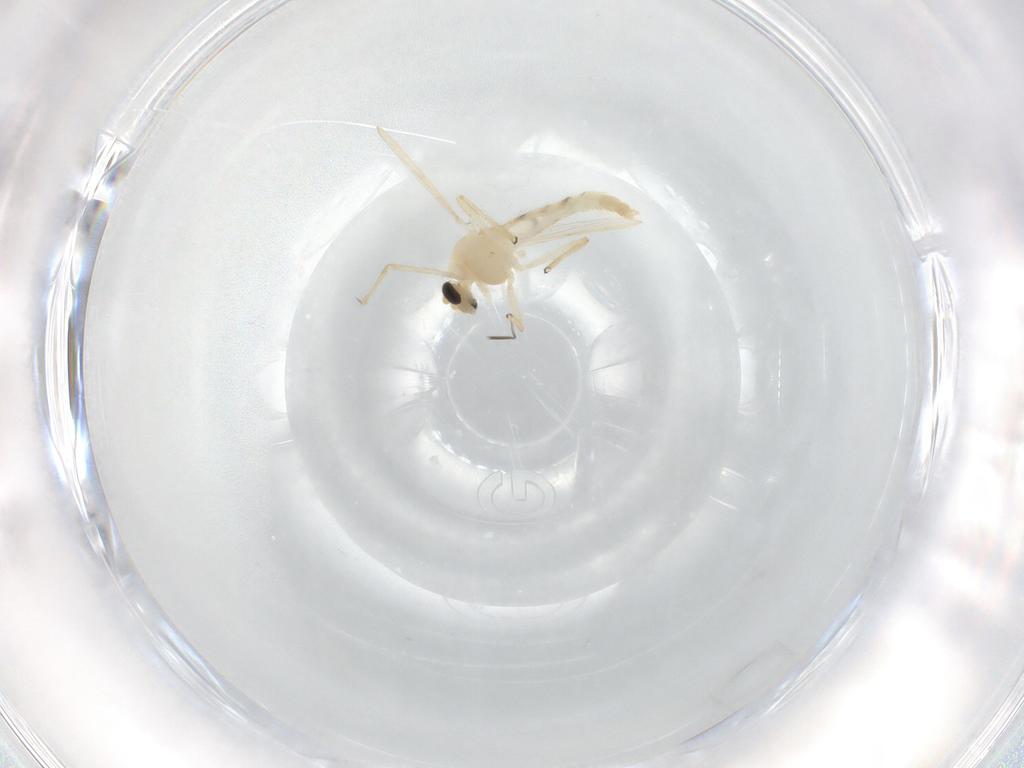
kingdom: Animalia
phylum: Arthropoda
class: Insecta
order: Diptera
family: Chironomidae
